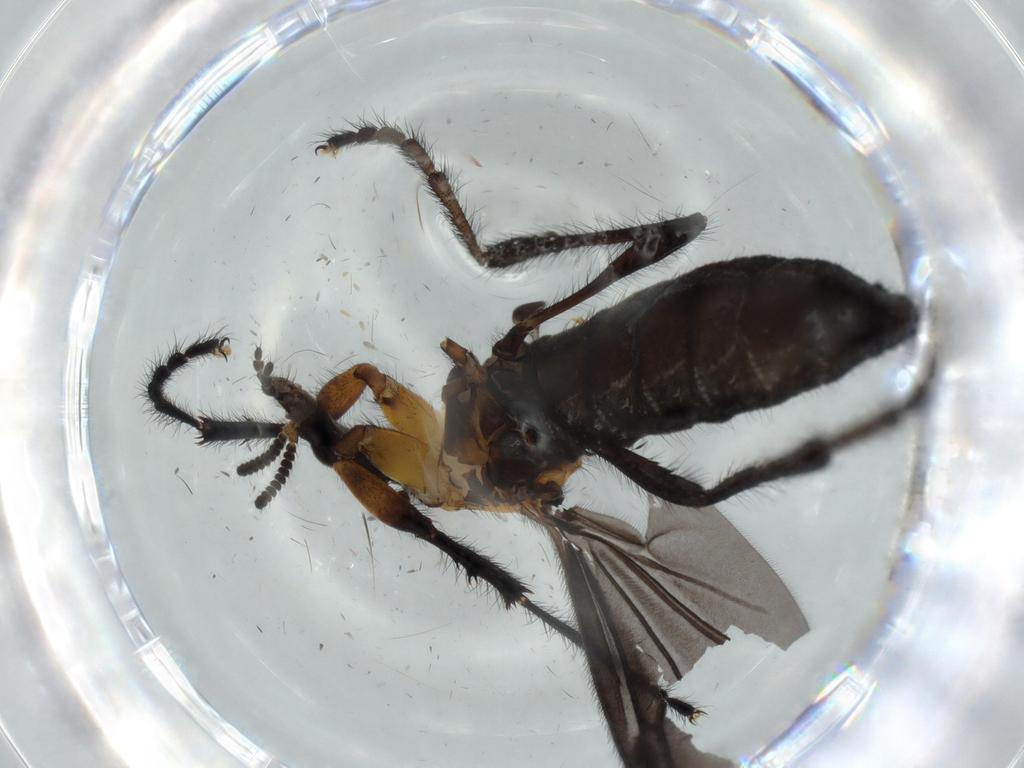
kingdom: Animalia
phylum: Arthropoda
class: Insecta
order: Diptera
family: Bibionidae
